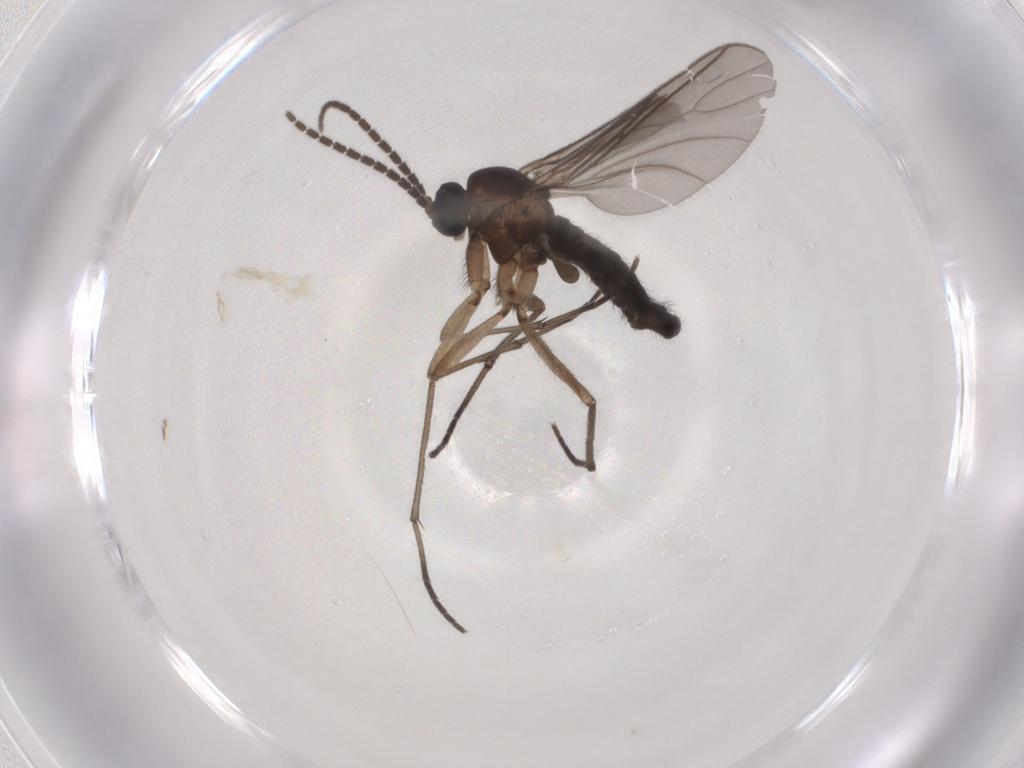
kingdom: Animalia
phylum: Arthropoda
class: Insecta
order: Diptera
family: Sciaridae
